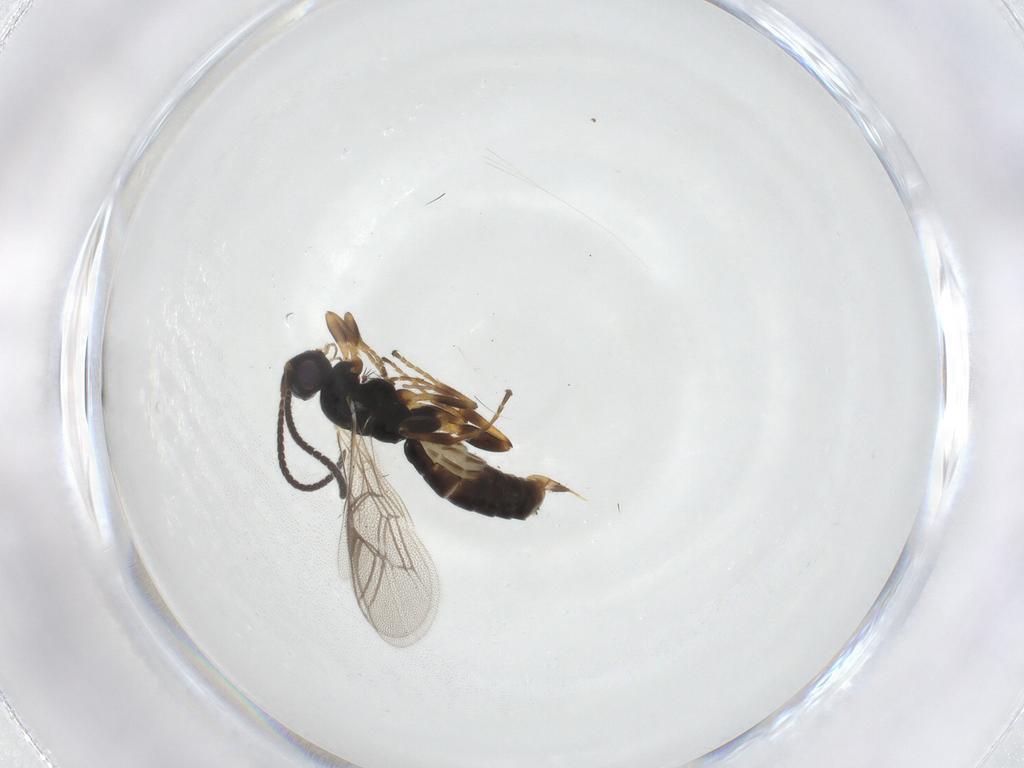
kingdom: Animalia
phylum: Arthropoda
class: Insecta
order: Hymenoptera
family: Ichneumonidae
